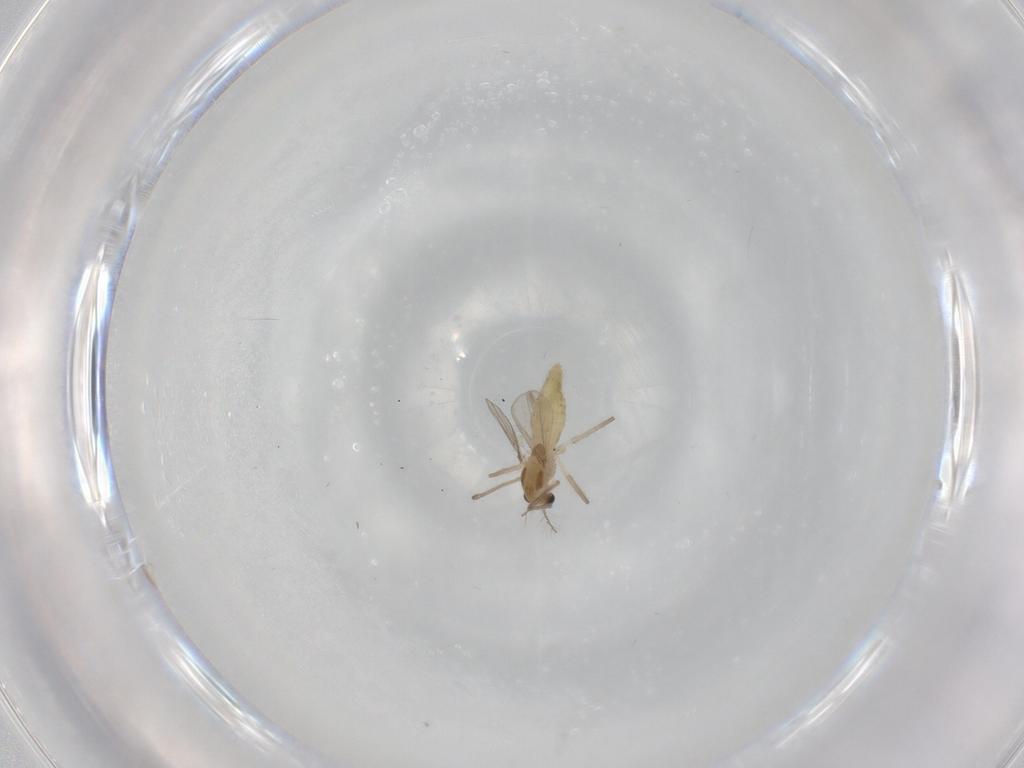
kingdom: Animalia
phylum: Arthropoda
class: Insecta
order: Diptera
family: Chironomidae
